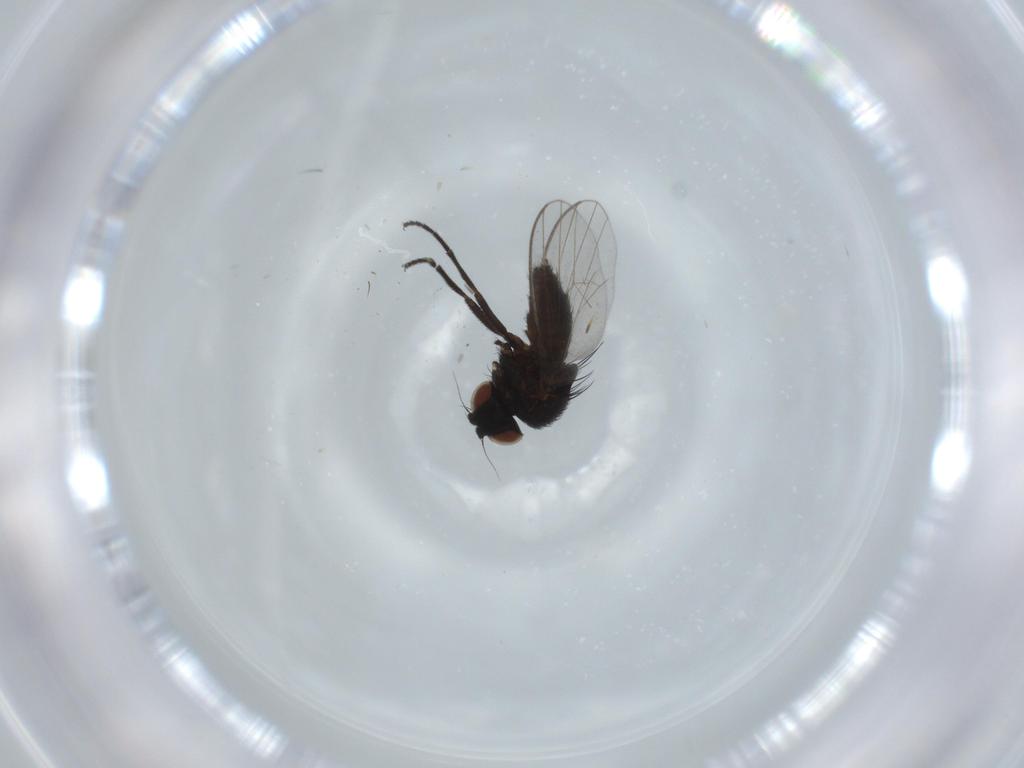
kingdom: Animalia
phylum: Arthropoda
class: Insecta
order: Diptera
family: Milichiidae
